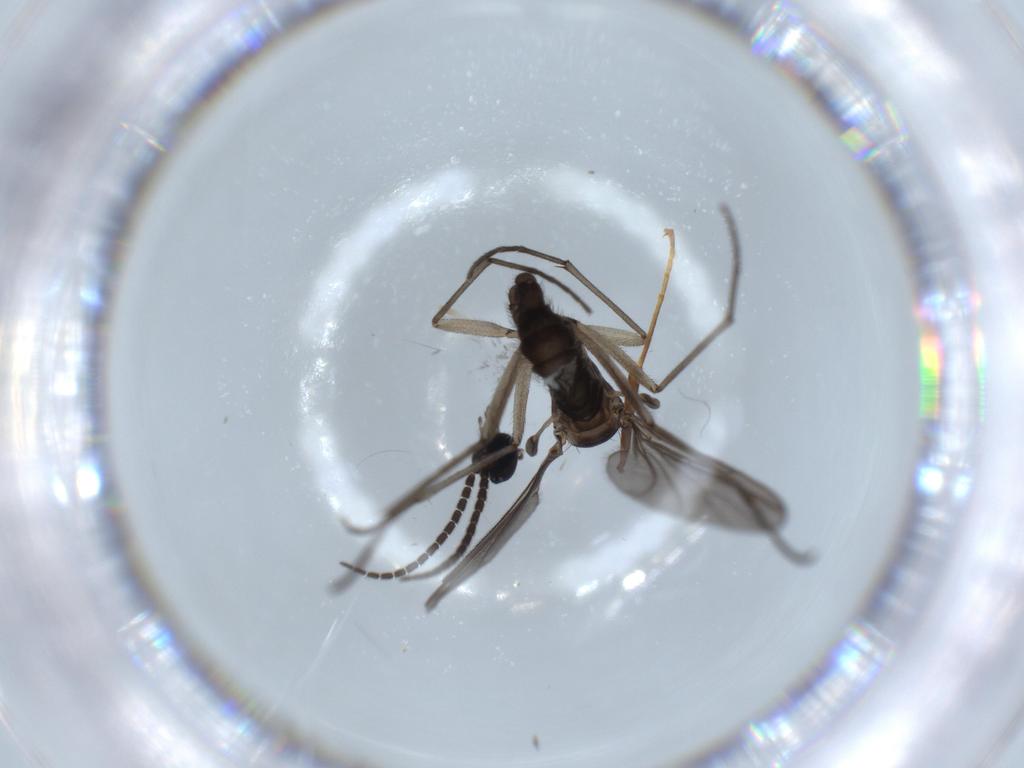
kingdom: Animalia
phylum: Arthropoda
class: Insecta
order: Diptera
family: Sciaridae
